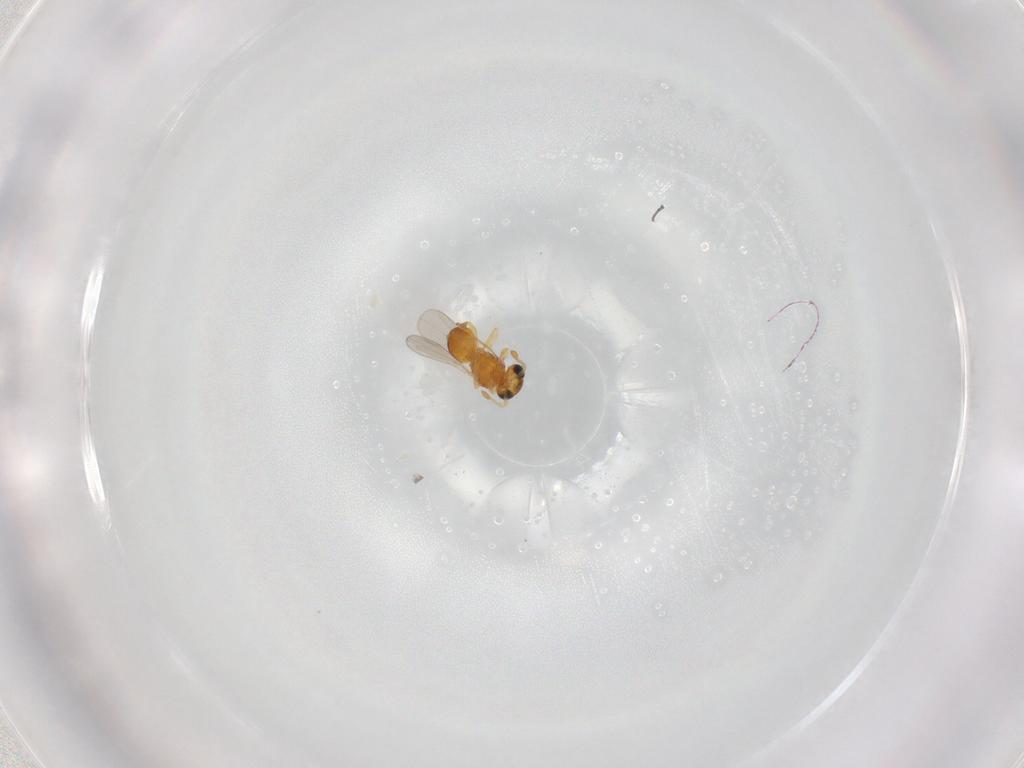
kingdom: Animalia
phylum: Arthropoda
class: Insecta
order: Hymenoptera
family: Platygastridae
